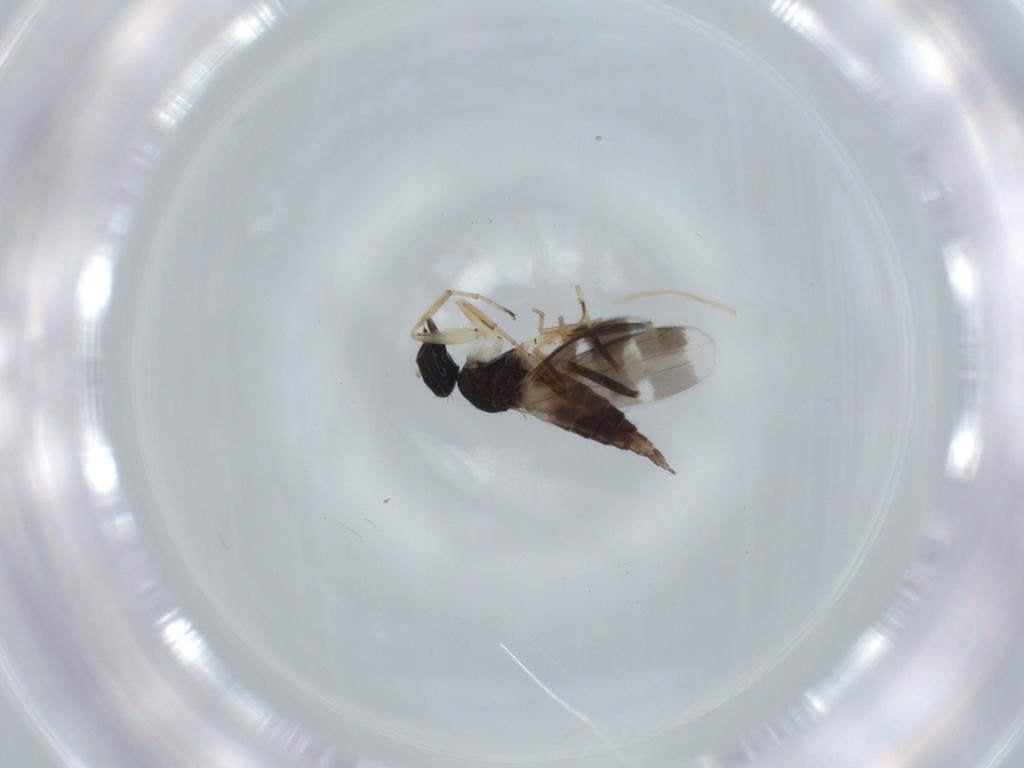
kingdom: Animalia
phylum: Arthropoda
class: Insecta
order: Diptera
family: Hybotidae
